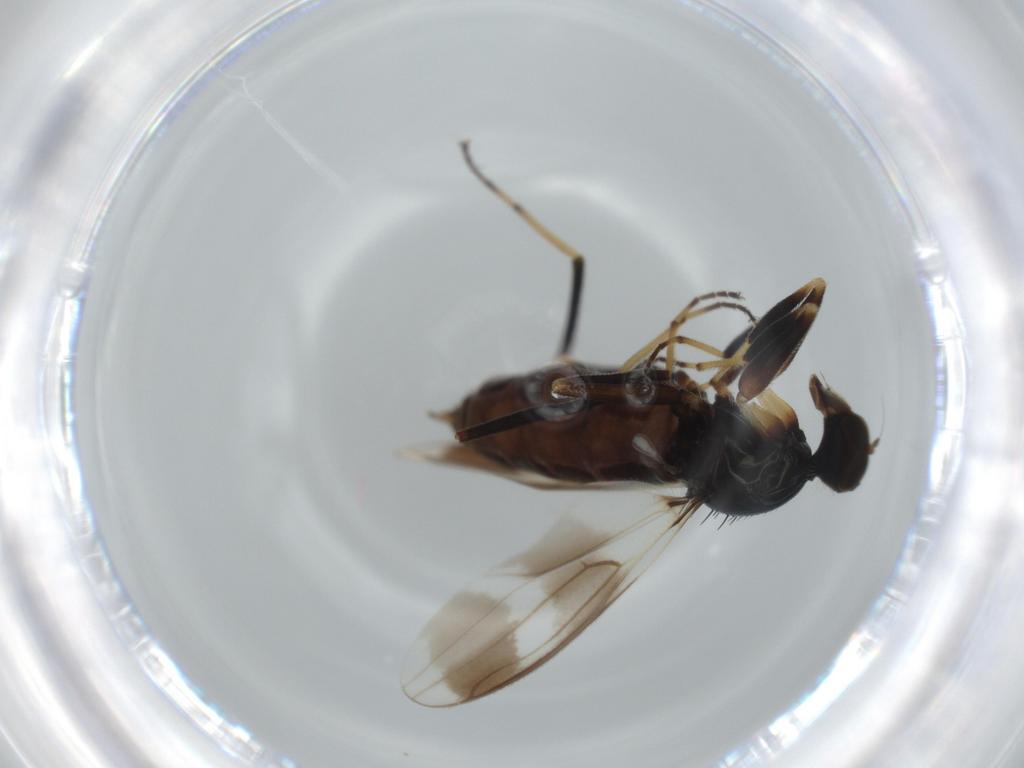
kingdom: Animalia
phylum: Arthropoda
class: Insecta
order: Diptera
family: Hybotidae
